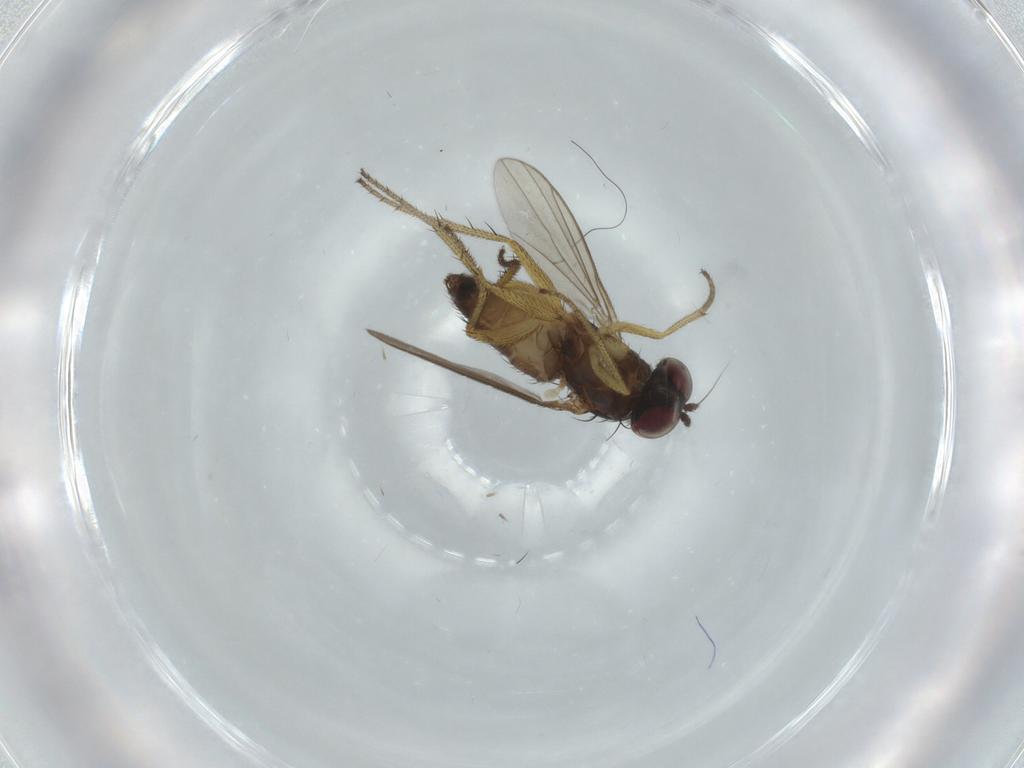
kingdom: Animalia
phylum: Arthropoda
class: Insecta
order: Diptera
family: Dolichopodidae
